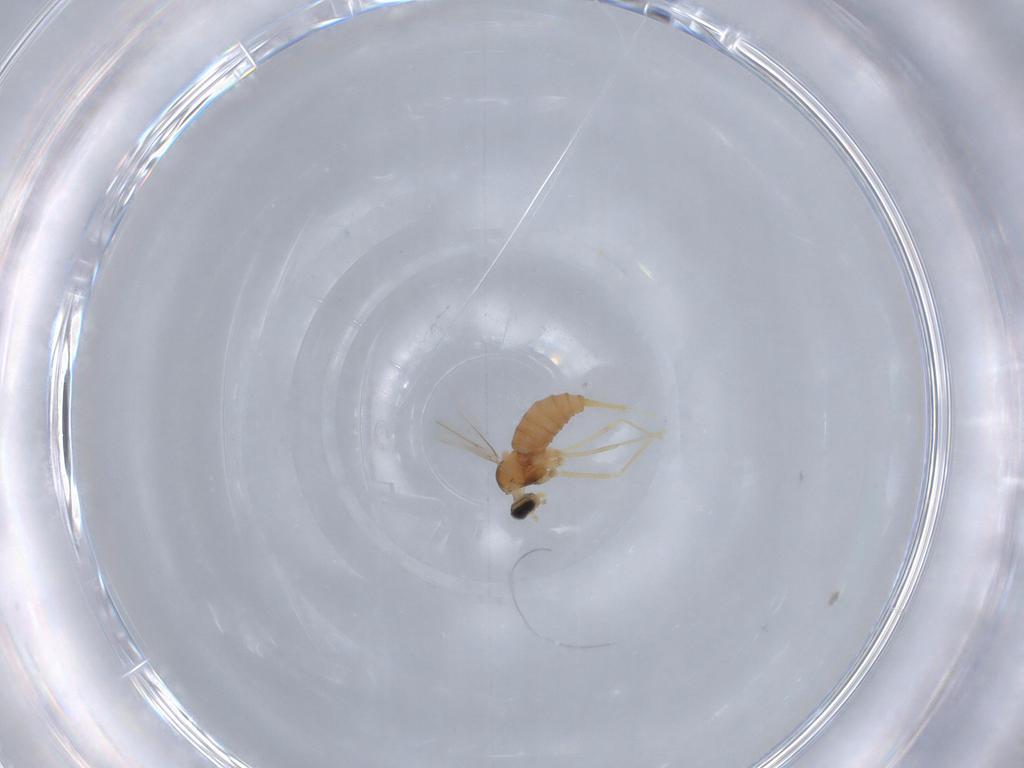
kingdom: Animalia
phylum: Arthropoda
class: Insecta
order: Diptera
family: Cecidomyiidae
